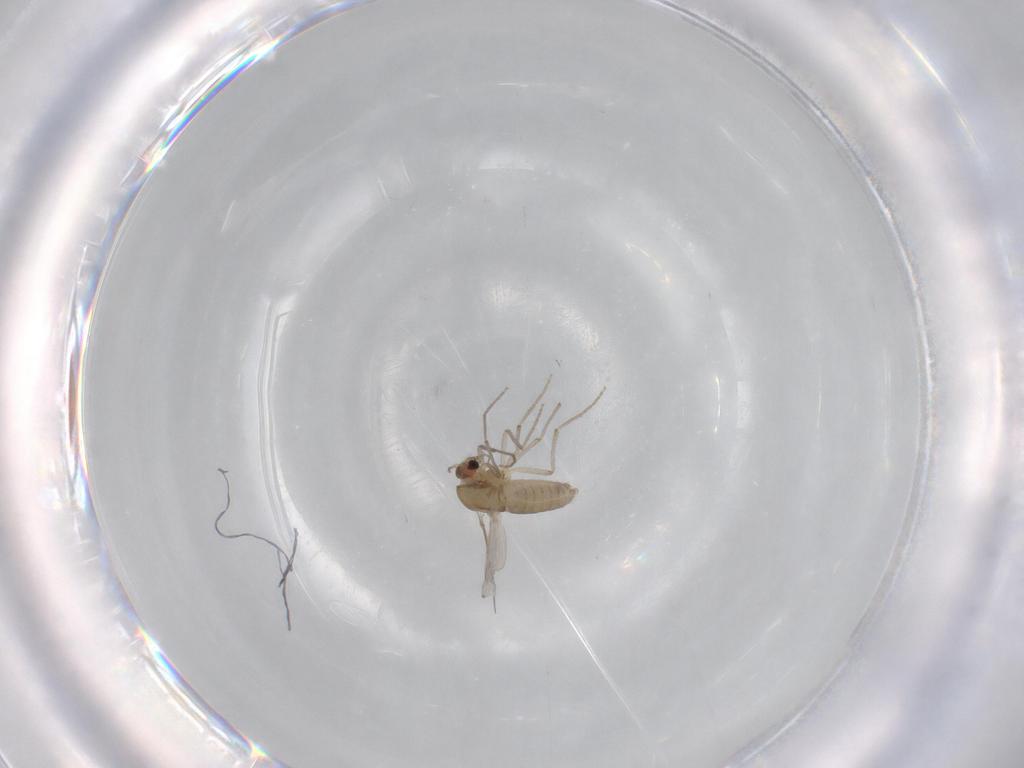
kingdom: Animalia
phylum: Arthropoda
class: Insecta
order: Diptera
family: Chironomidae
